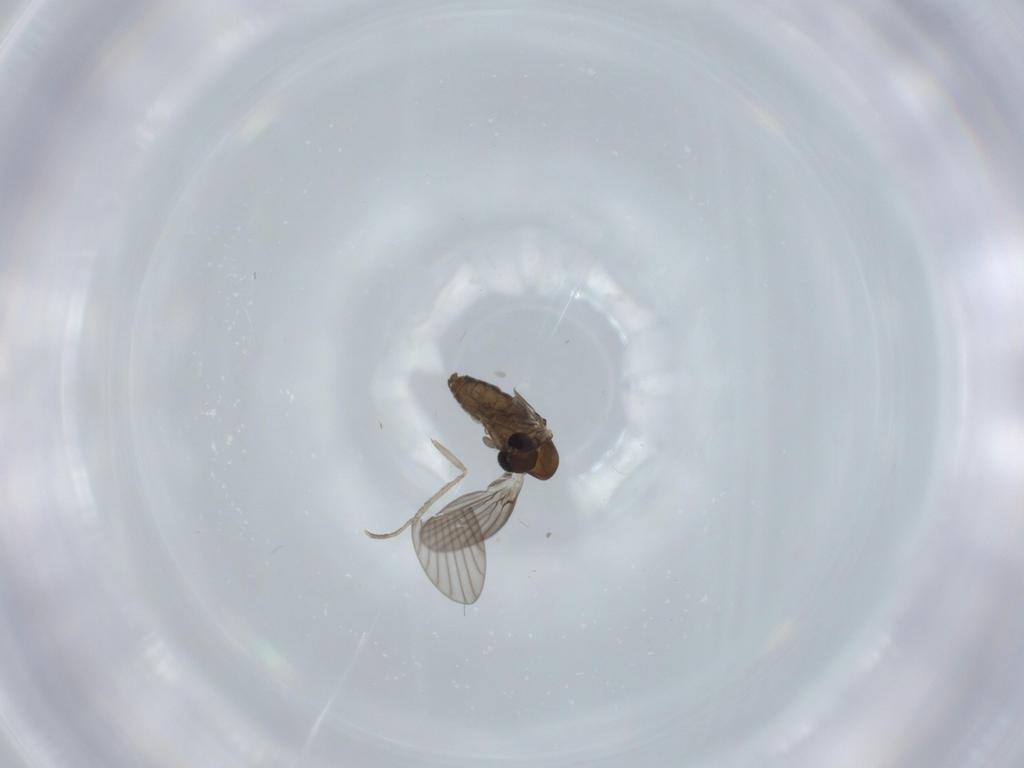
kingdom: Animalia
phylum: Arthropoda
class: Insecta
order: Diptera
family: Psychodidae
